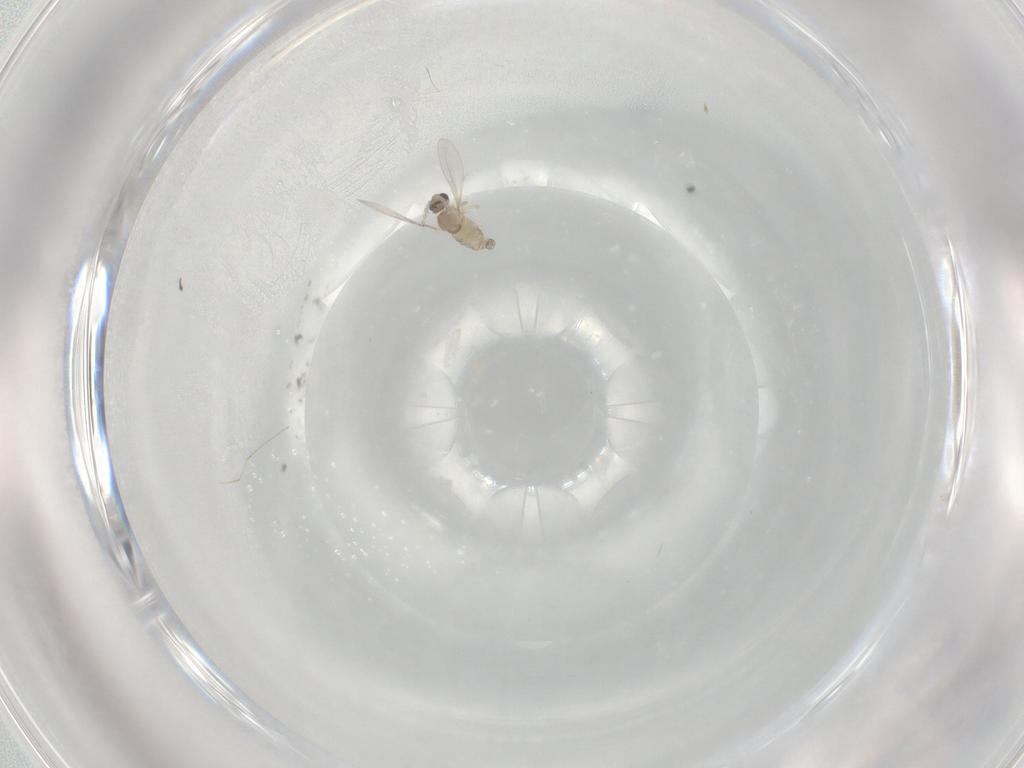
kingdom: Animalia
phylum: Arthropoda
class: Insecta
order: Diptera
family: Cecidomyiidae
